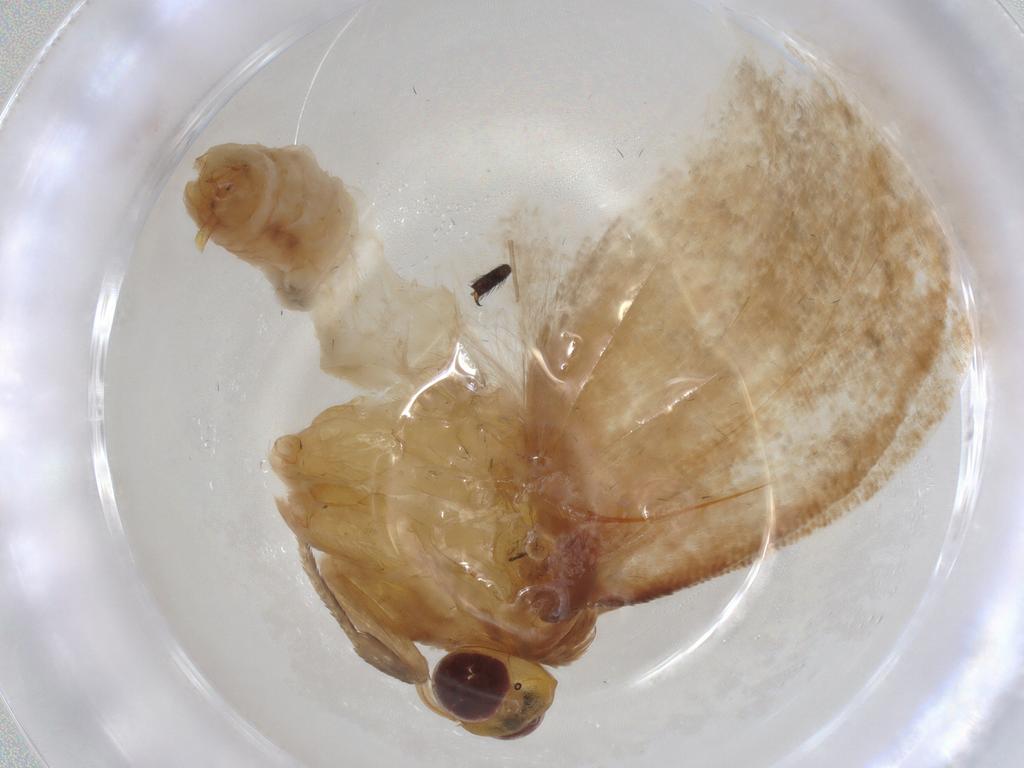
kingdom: Animalia
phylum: Arthropoda
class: Insecta
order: Lepidoptera
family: Tortricidae
